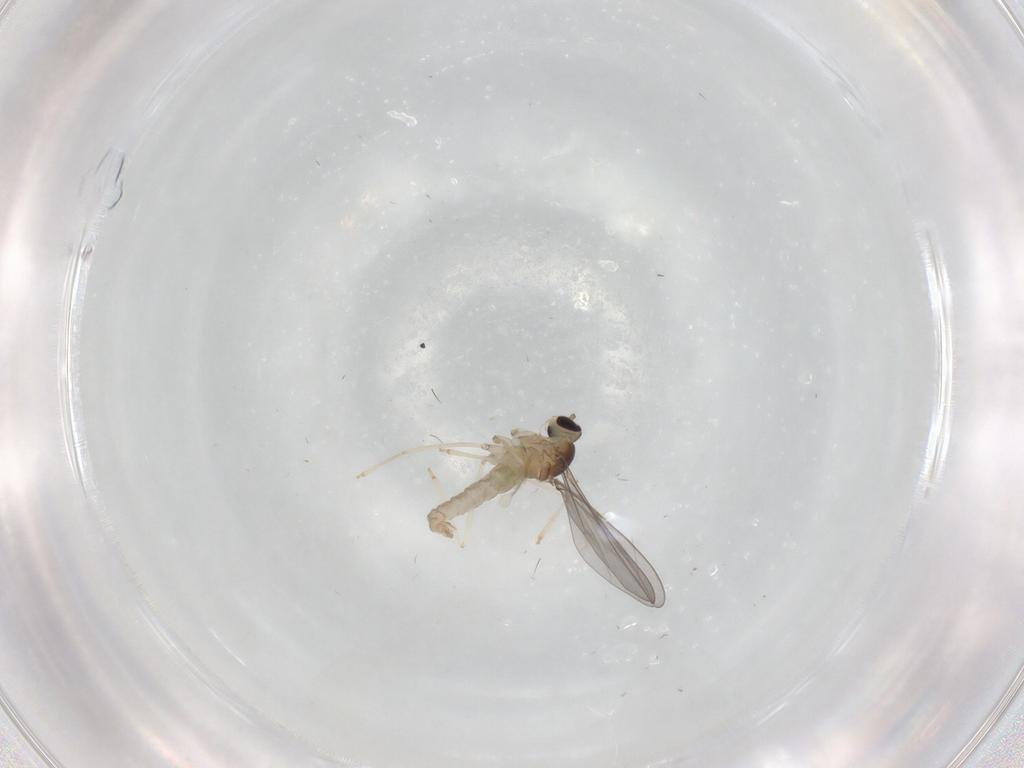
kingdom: Animalia
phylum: Arthropoda
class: Insecta
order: Diptera
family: Cecidomyiidae
